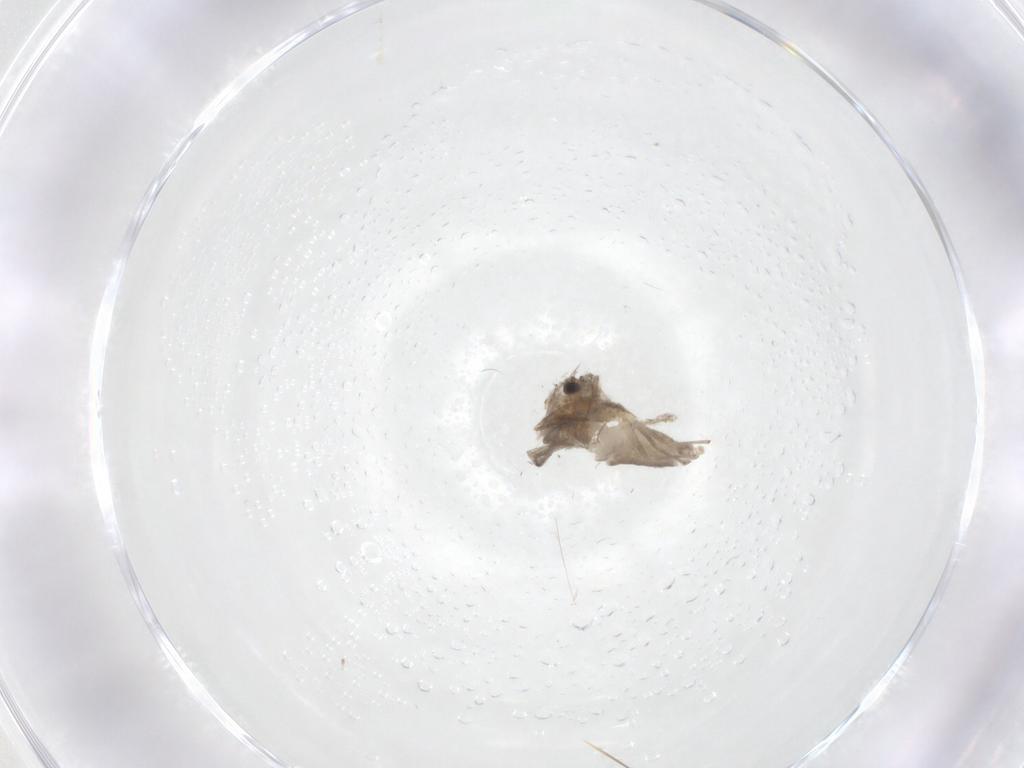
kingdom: Animalia
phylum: Arthropoda
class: Insecta
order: Diptera
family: Chironomidae
